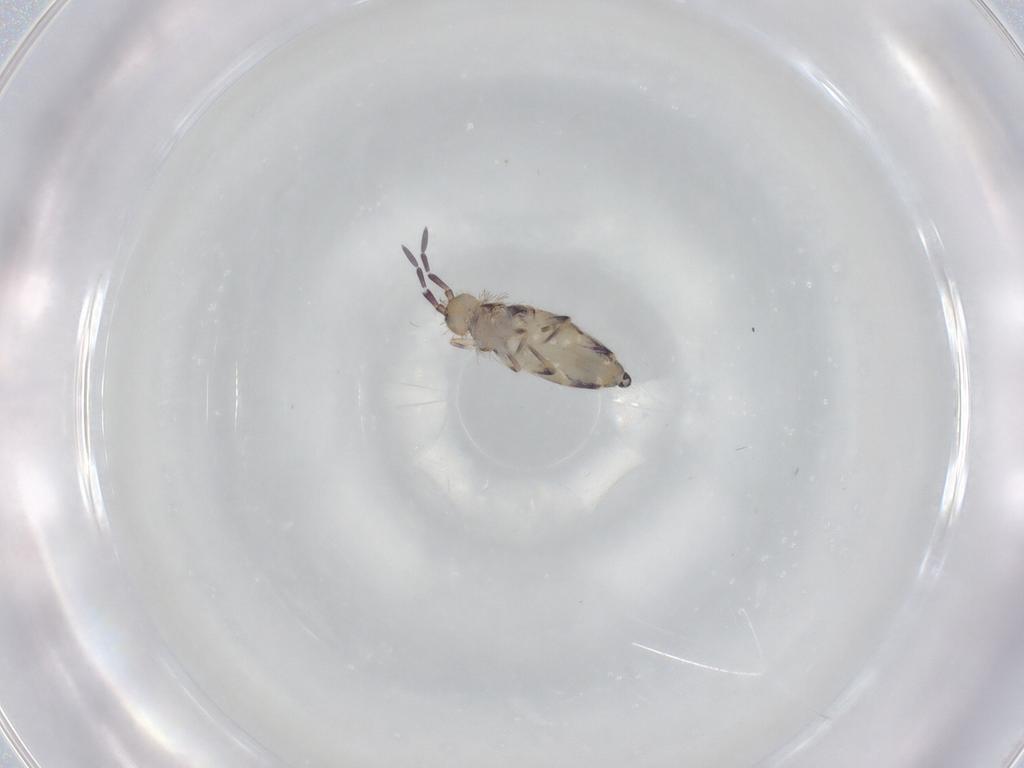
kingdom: Animalia
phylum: Arthropoda
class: Collembola
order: Entomobryomorpha
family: Entomobryidae
